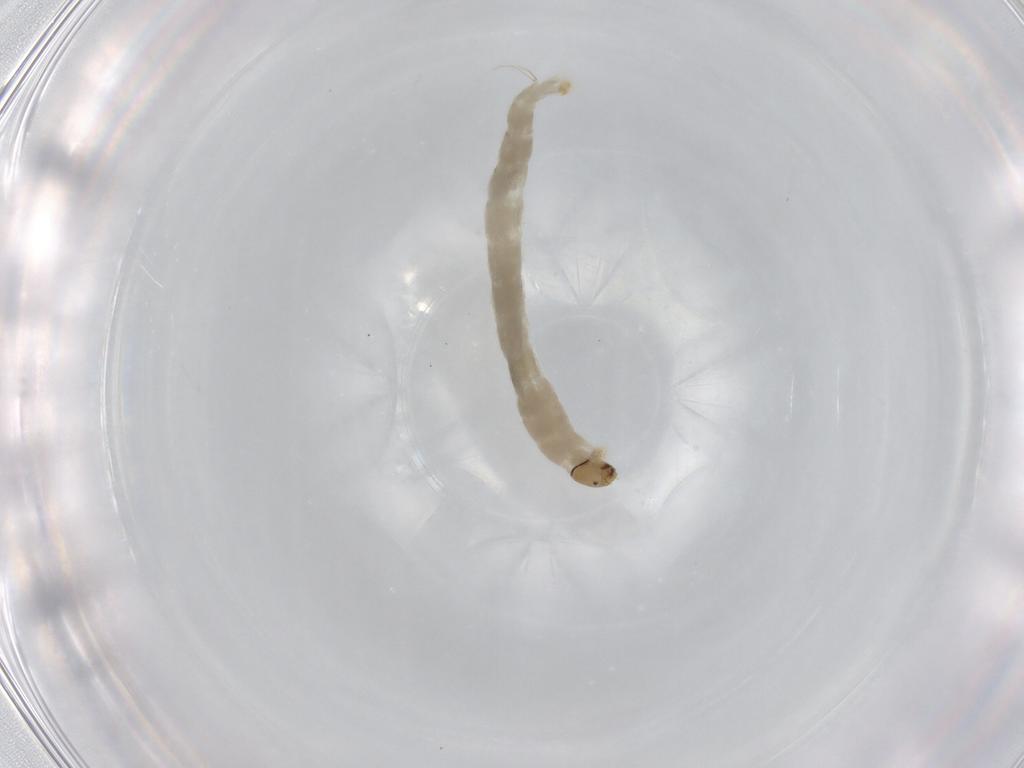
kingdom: Animalia
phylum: Arthropoda
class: Insecta
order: Diptera
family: Chironomidae
